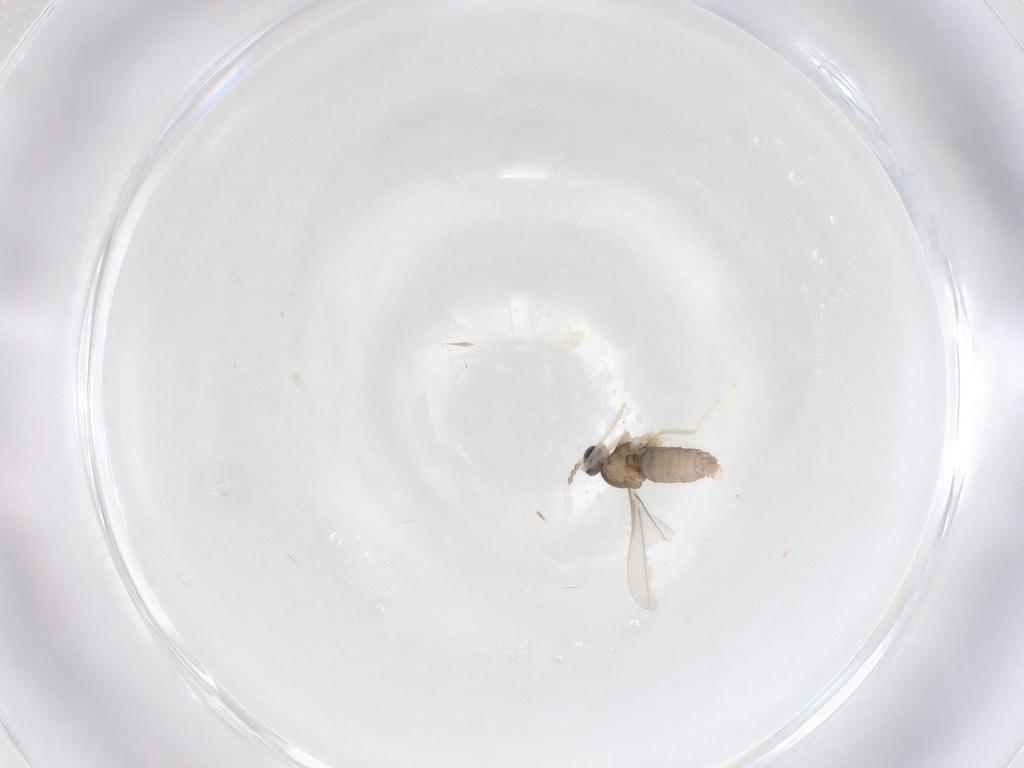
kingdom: Animalia
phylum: Arthropoda
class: Insecta
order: Diptera
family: Cecidomyiidae
